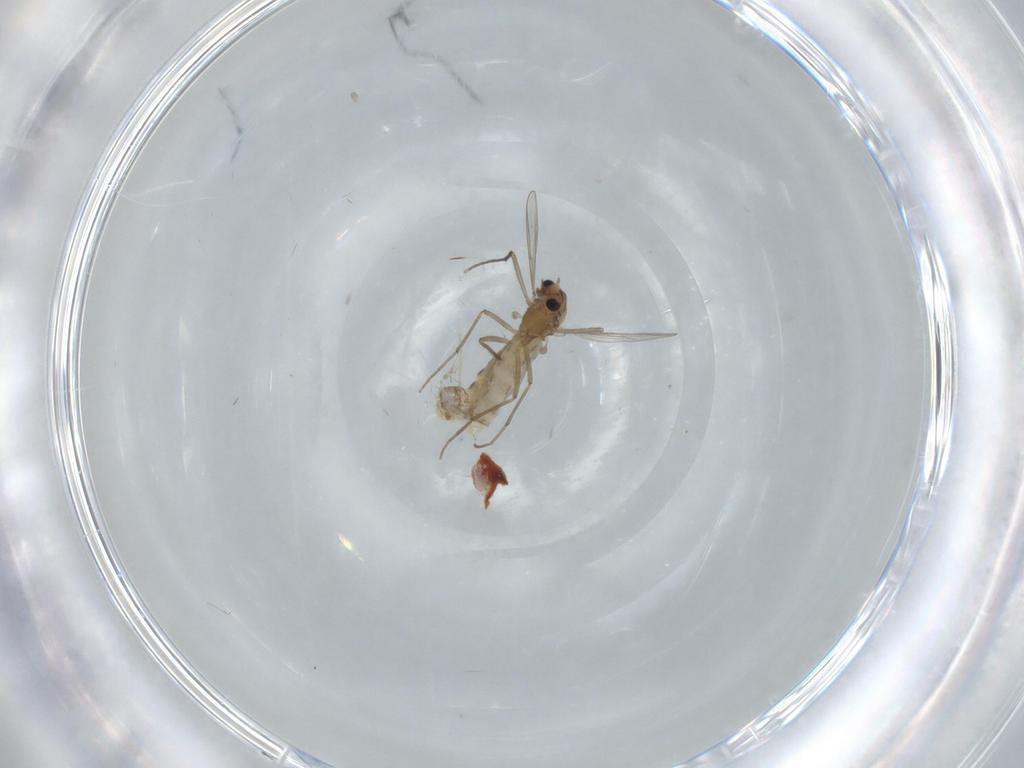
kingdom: Animalia
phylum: Arthropoda
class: Insecta
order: Diptera
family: Chironomidae
